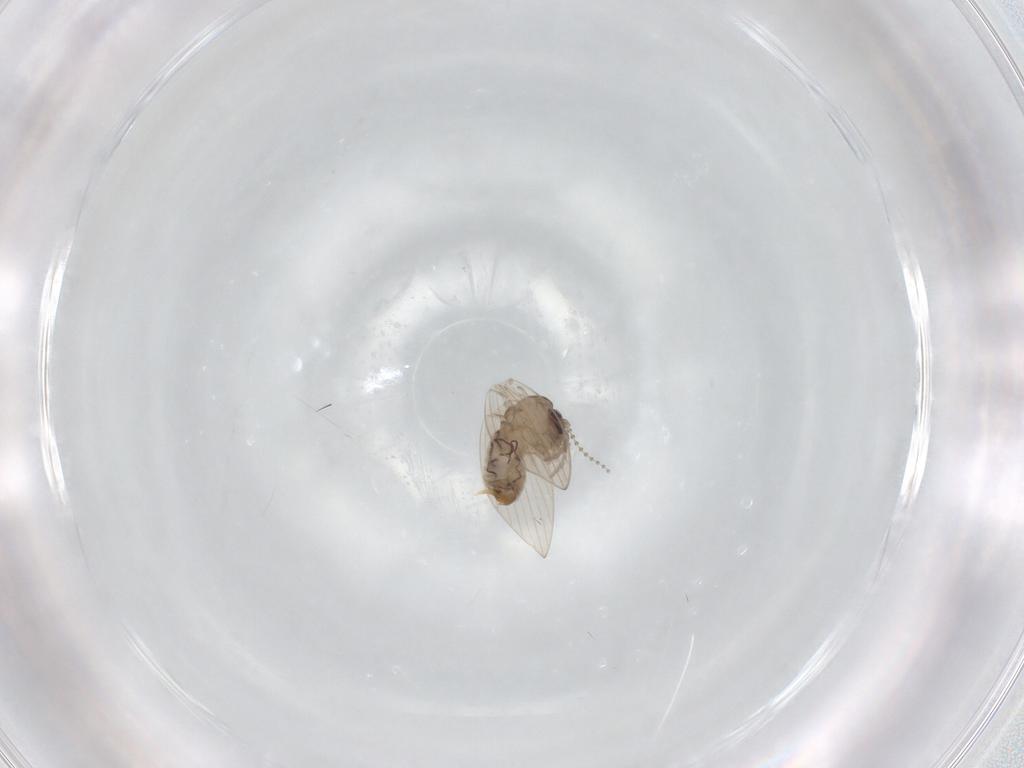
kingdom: Animalia
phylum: Arthropoda
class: Insecta
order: Diptera
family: Psychodidae
